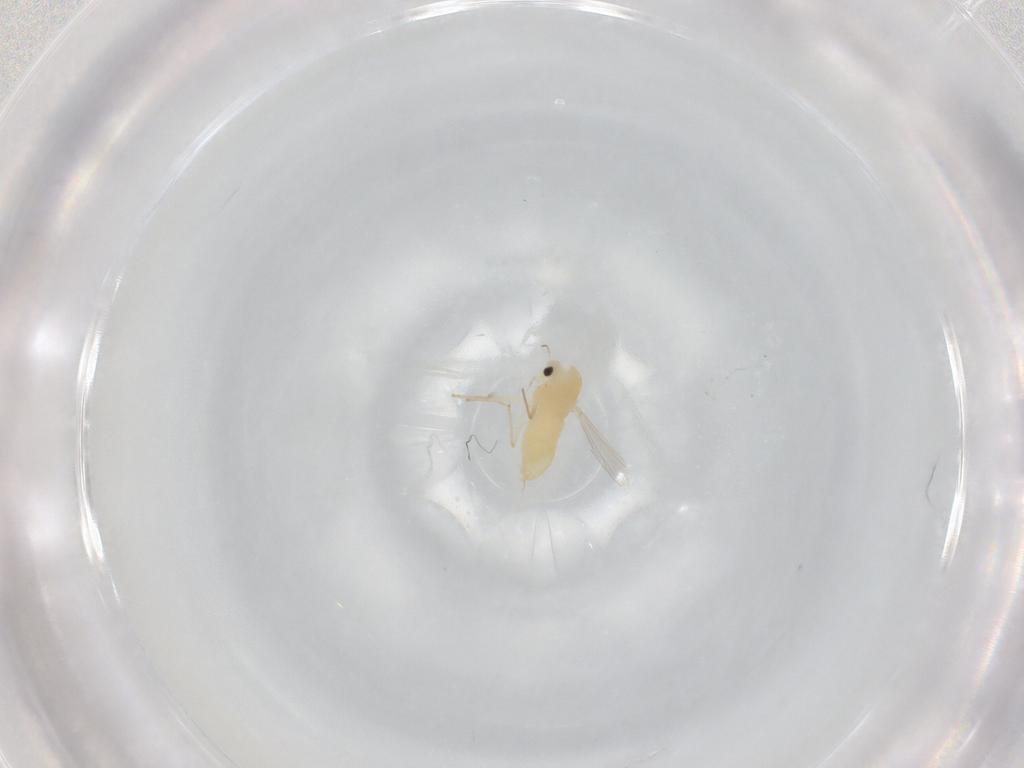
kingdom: Animalia
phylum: Arthropoda
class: Insecta
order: Diptera
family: Chironomidae
